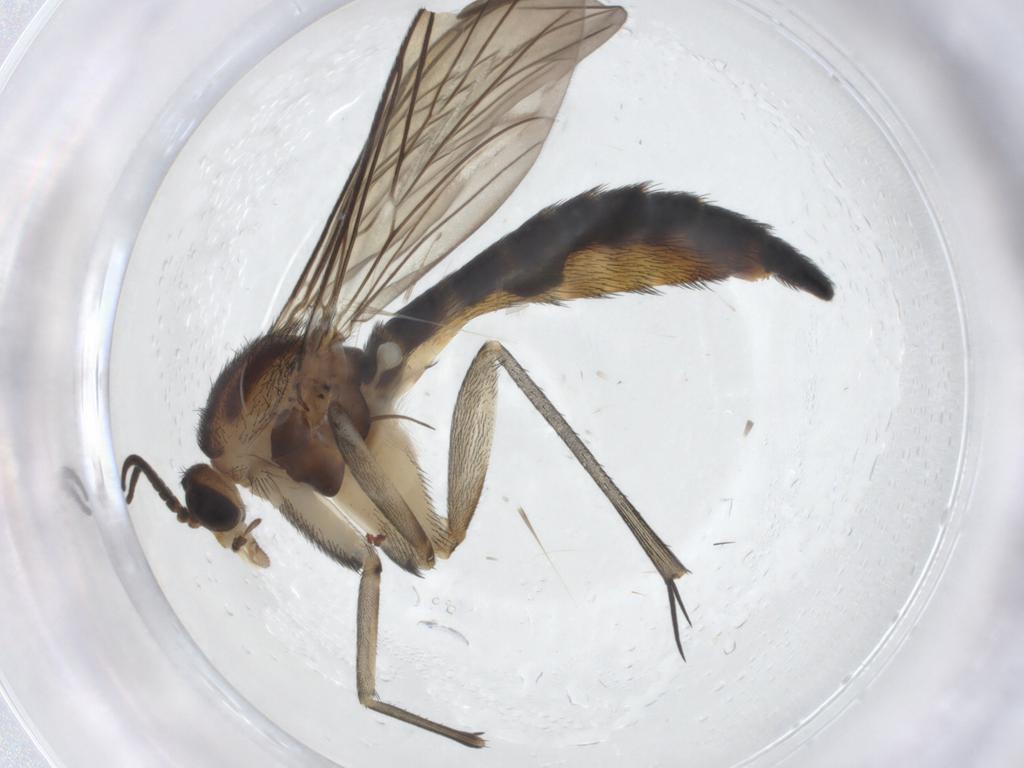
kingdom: Animalia
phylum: Arthropoda
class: Insecta
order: Diptera
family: Keroplatidae
